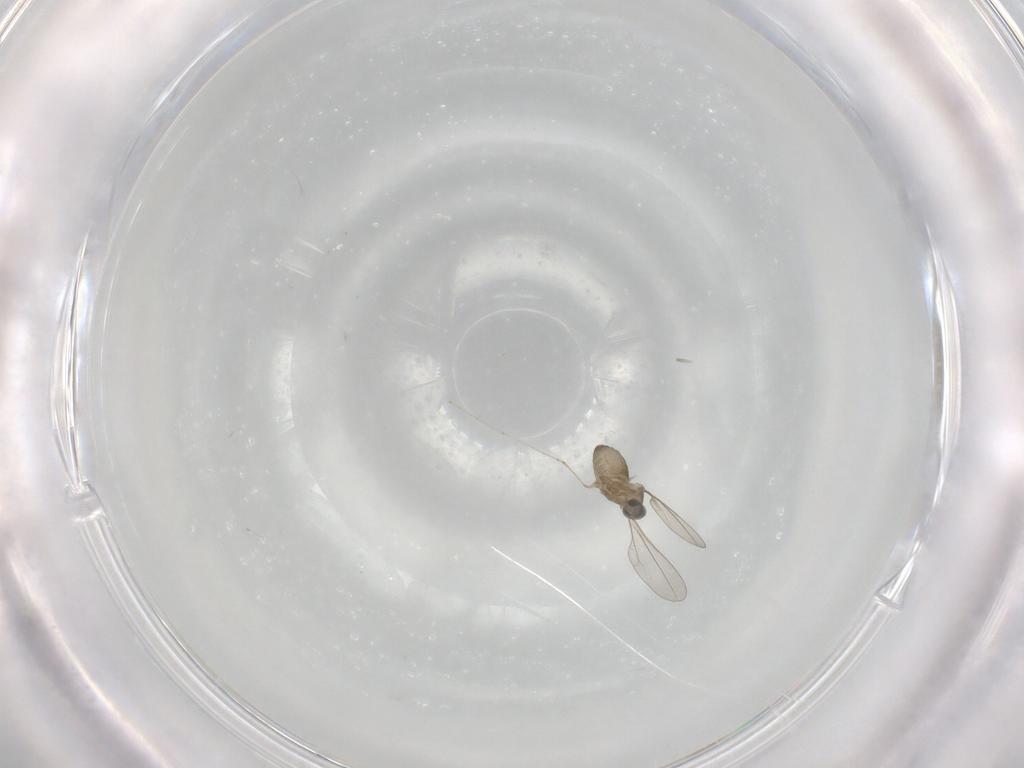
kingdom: Animalia
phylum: Arthropoda
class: Insecta
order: Diptera
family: Cecidomyiidae
